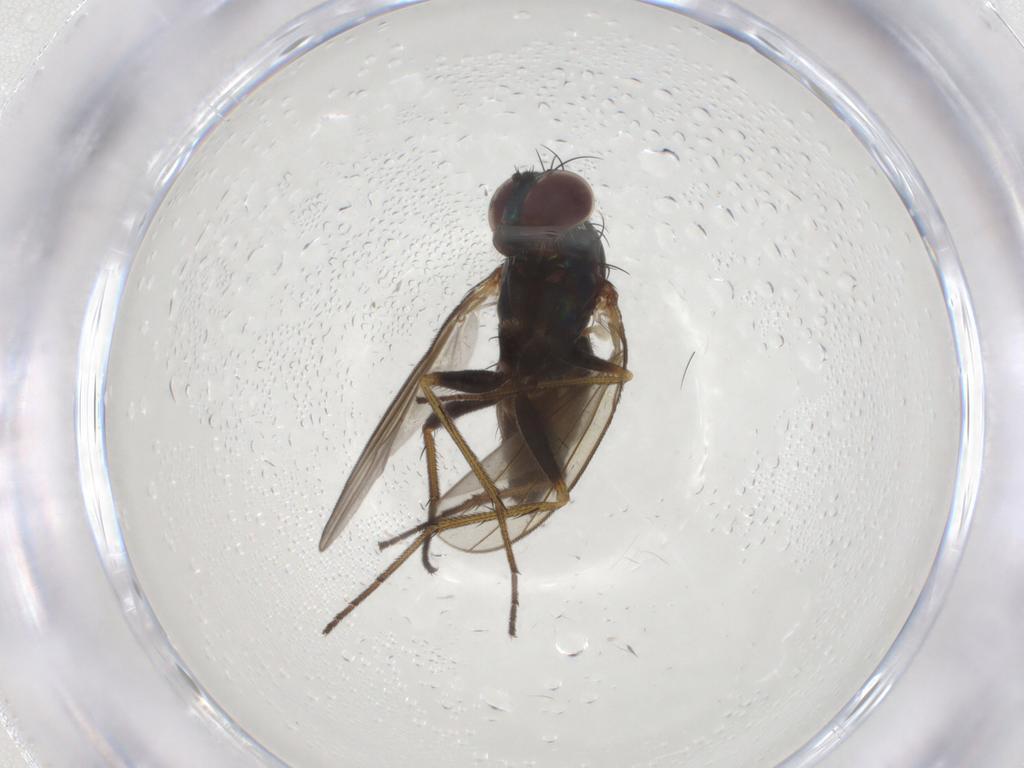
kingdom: Animalia
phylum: Arthropoda
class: Insecta
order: Diptera
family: Dolichopodidae
